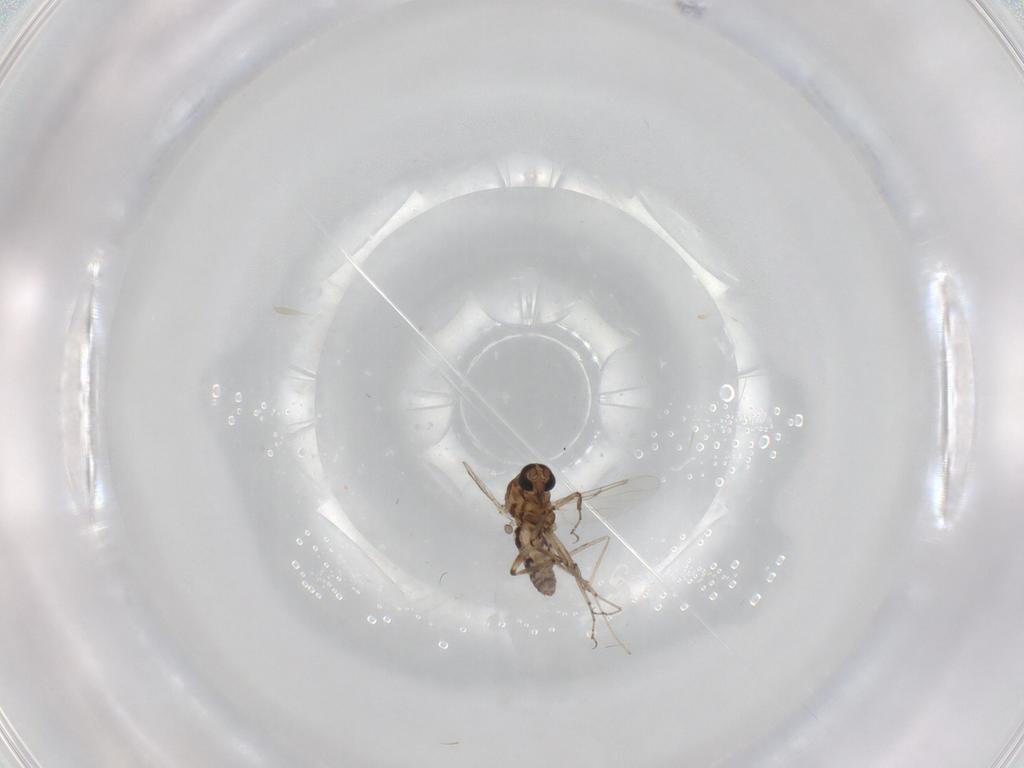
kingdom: Animalia
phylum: Arthropoda
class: Insecta
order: Diptera
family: Ceratopogonidae
